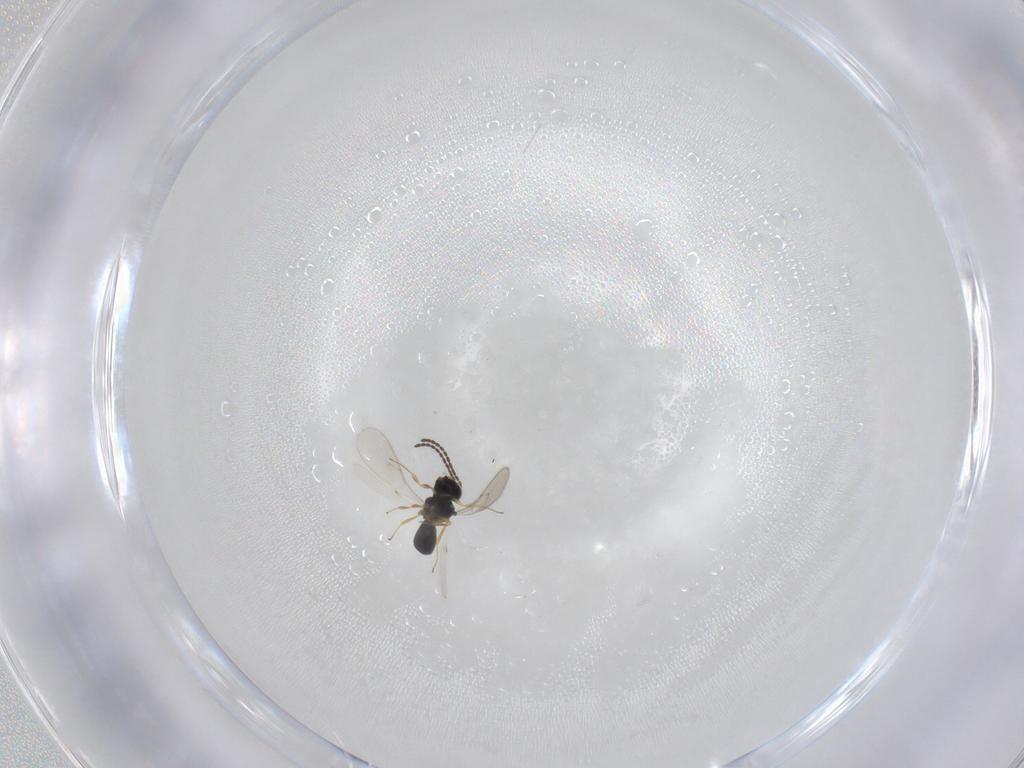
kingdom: Animalia
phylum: Arthropoda
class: Insecta
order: Hymenoptera
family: Scelionidae
